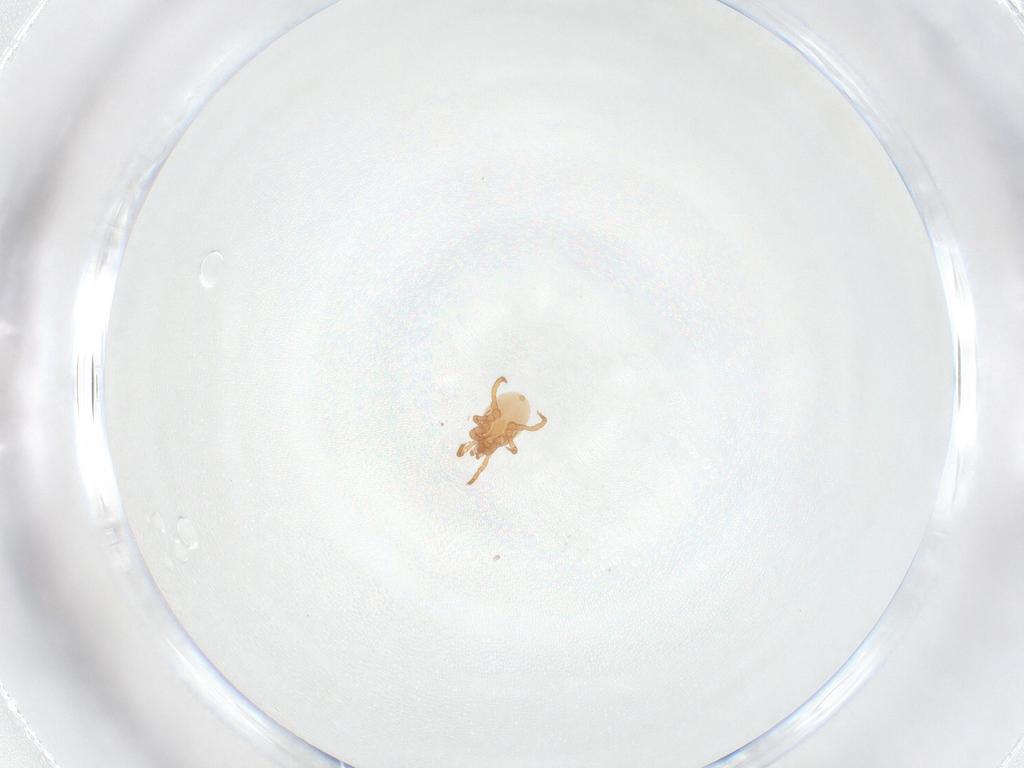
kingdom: Animalia
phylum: Arthropoda
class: Arachnida
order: Mesostigmata
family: Parasitidae
